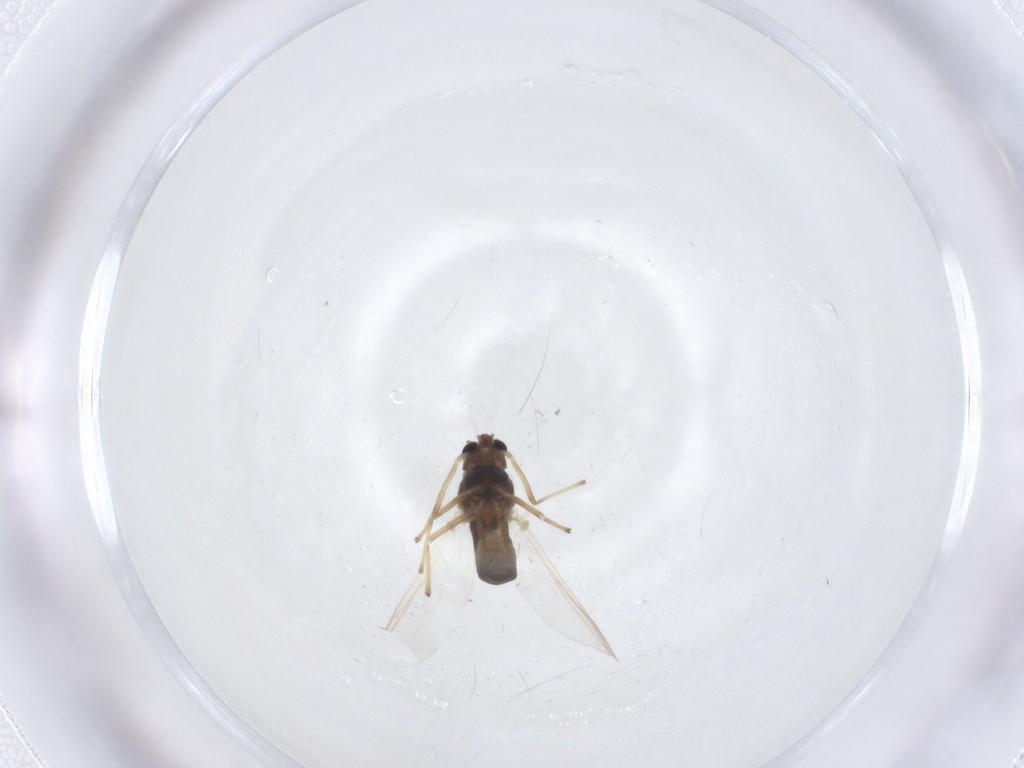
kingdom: Animalia
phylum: Arthropoda
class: Insecta
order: Diptera
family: Chironomidae
